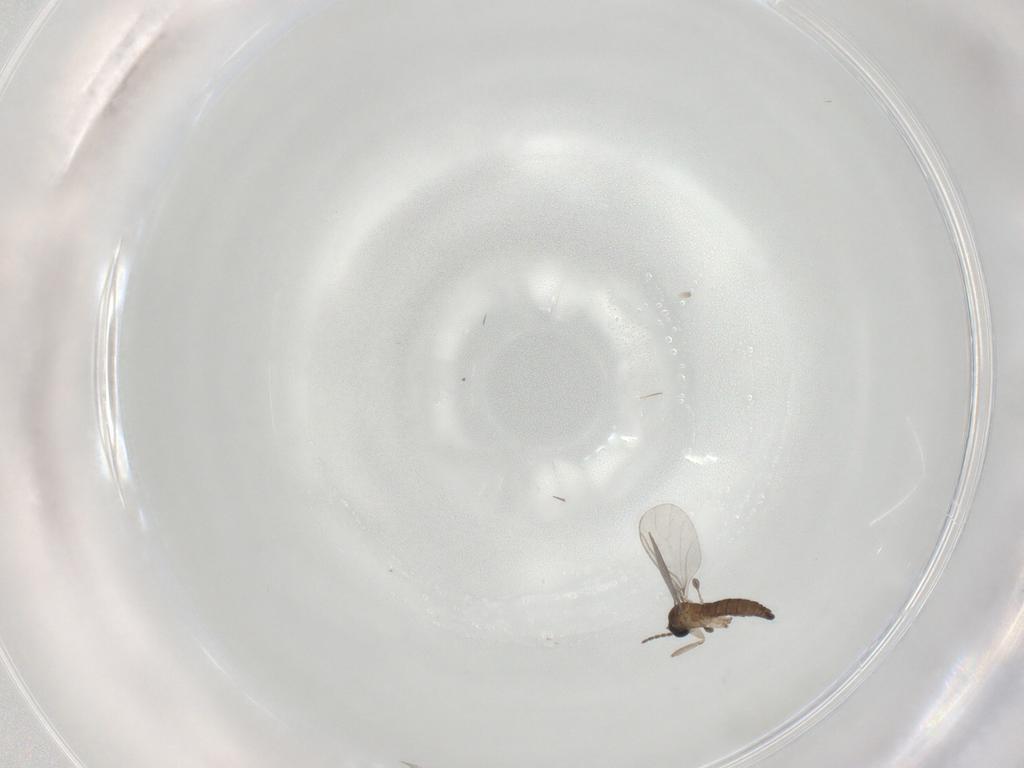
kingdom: Animalia
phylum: Arthropoda
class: Insecta
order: Diptera
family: Sciaridae
